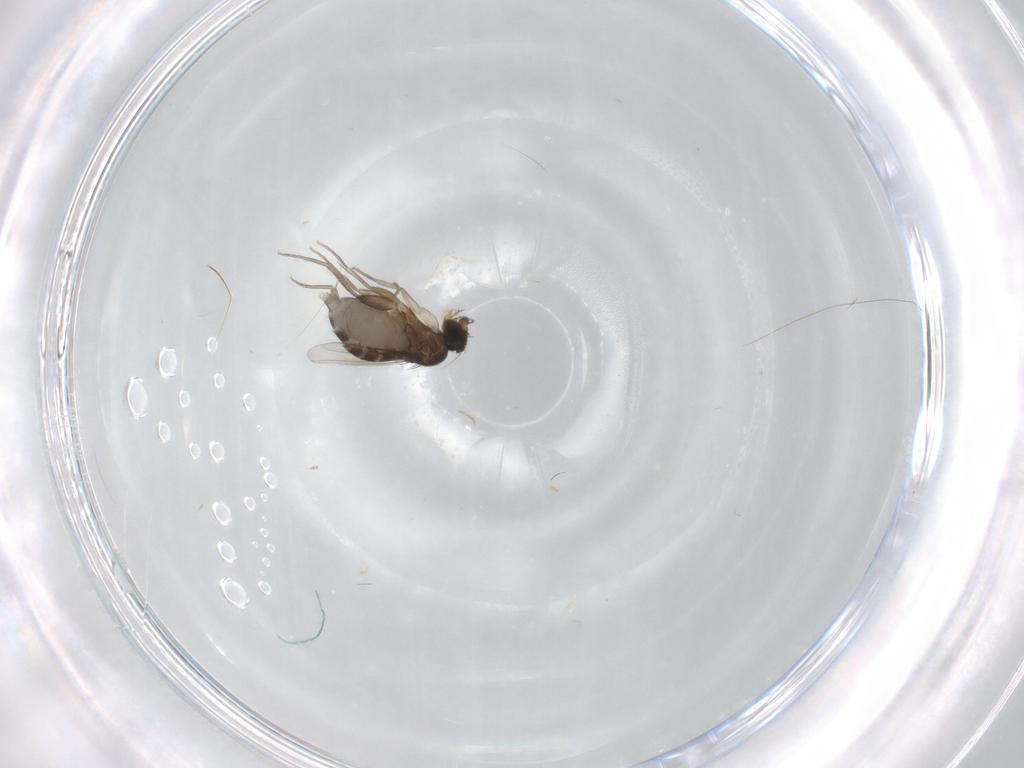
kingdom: Animalia
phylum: Arthropoda
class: Insecta
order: Diptera
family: Phoridae
